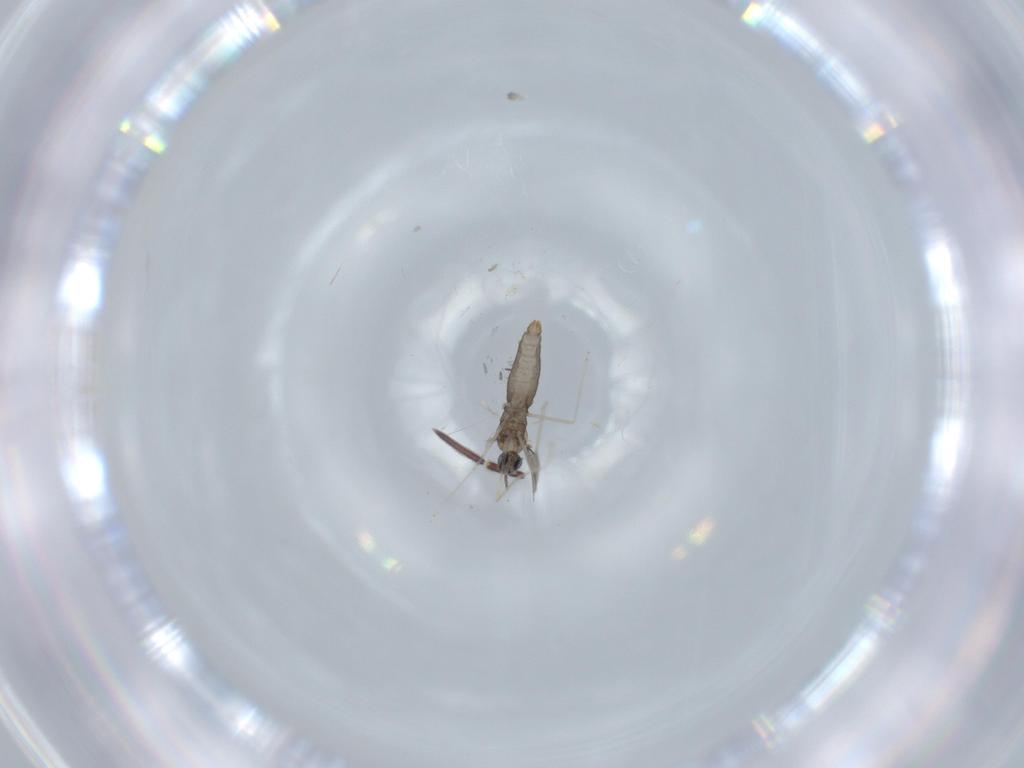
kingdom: Animalia
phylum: Arthropoda
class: Insecta
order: Diptera
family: Cecidomyiidae
